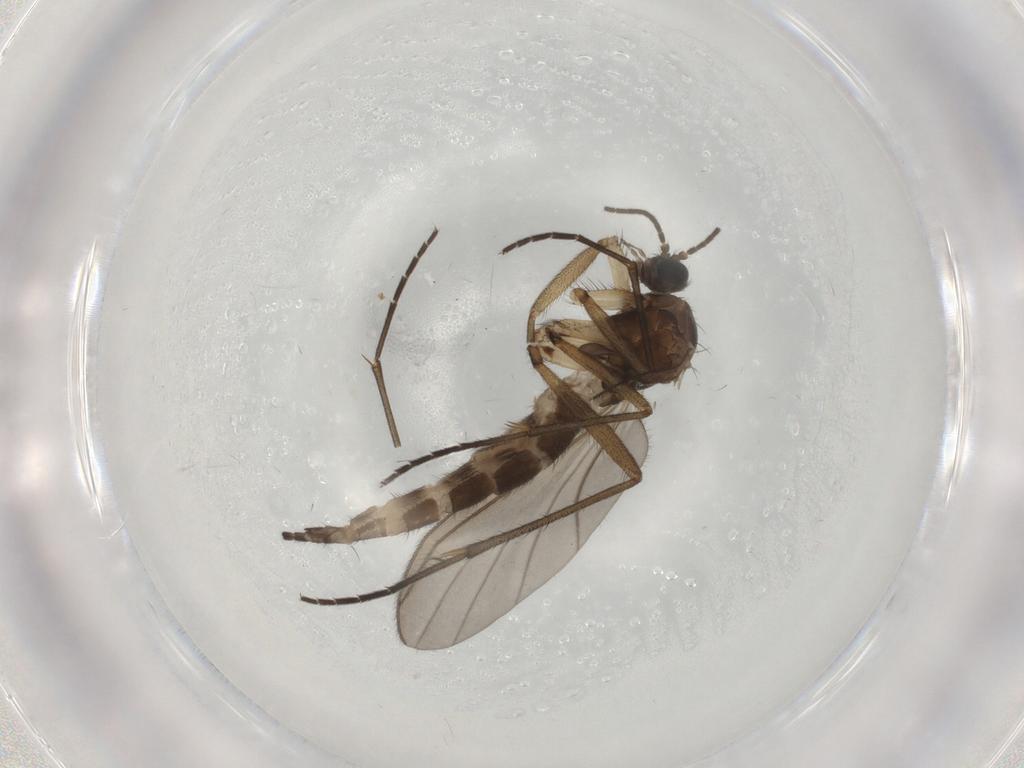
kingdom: Animalia
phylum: Arthropoda
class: Insecta
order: Diptera
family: Sciaridae
